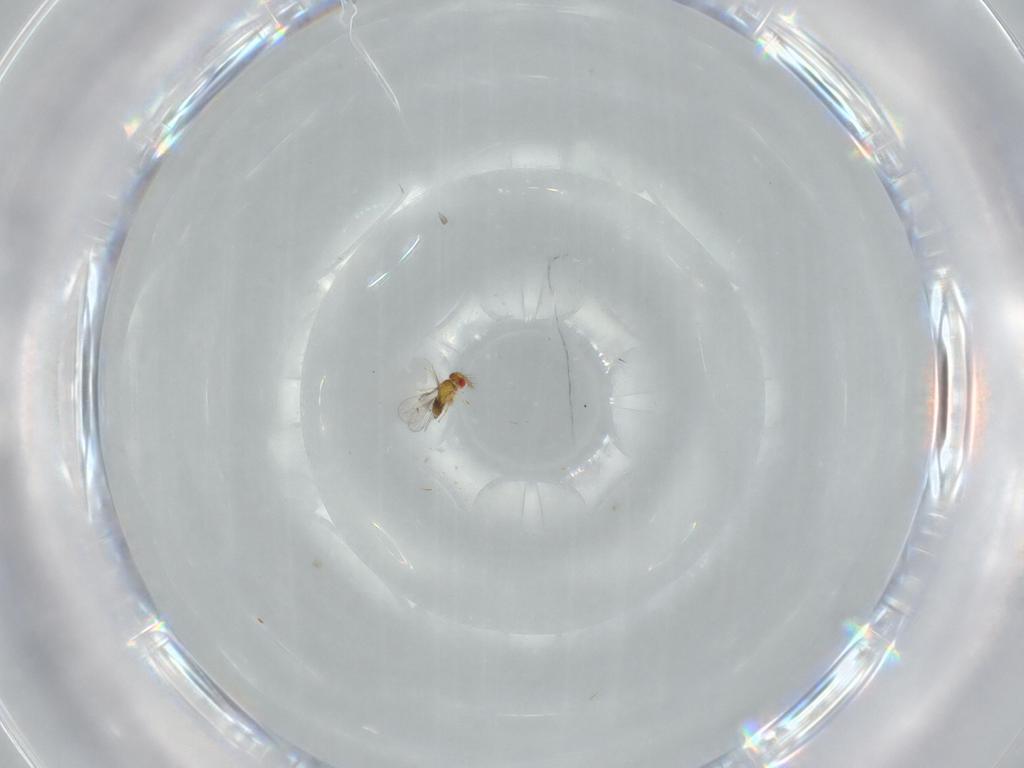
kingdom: Animalia
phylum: Arthropoda
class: Insecta
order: Hymenoptera
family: Trichogrammatidae
